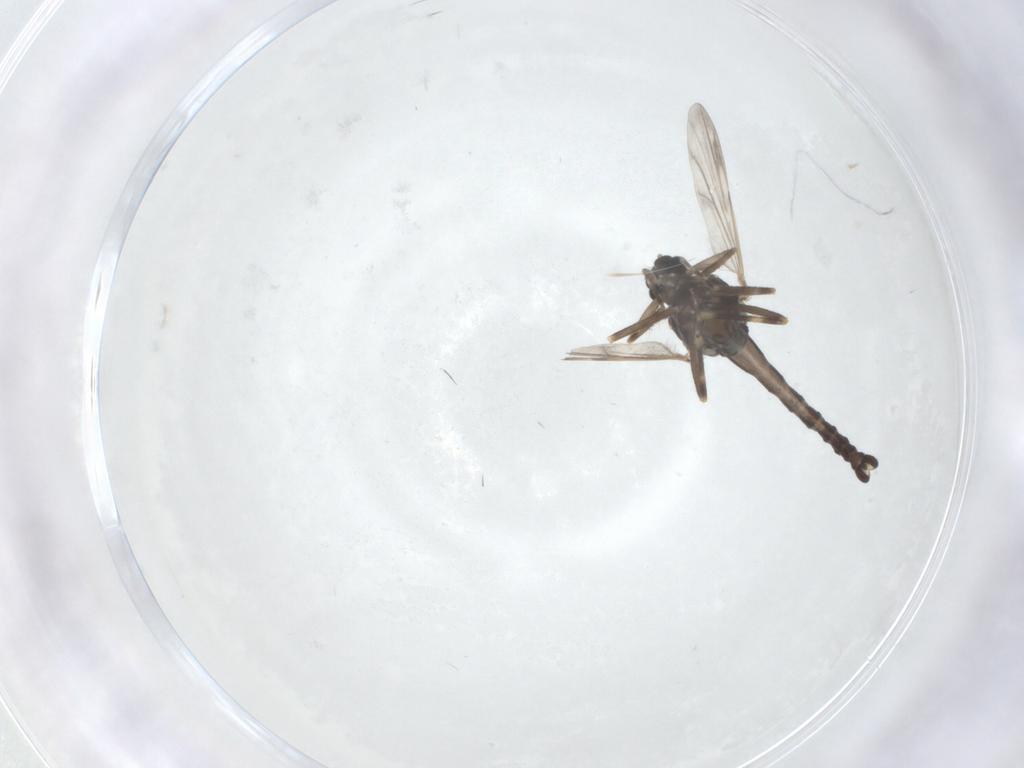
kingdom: Animalia
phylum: Arthropoda
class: Insecta
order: Diptera
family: Ceratopogonidae
